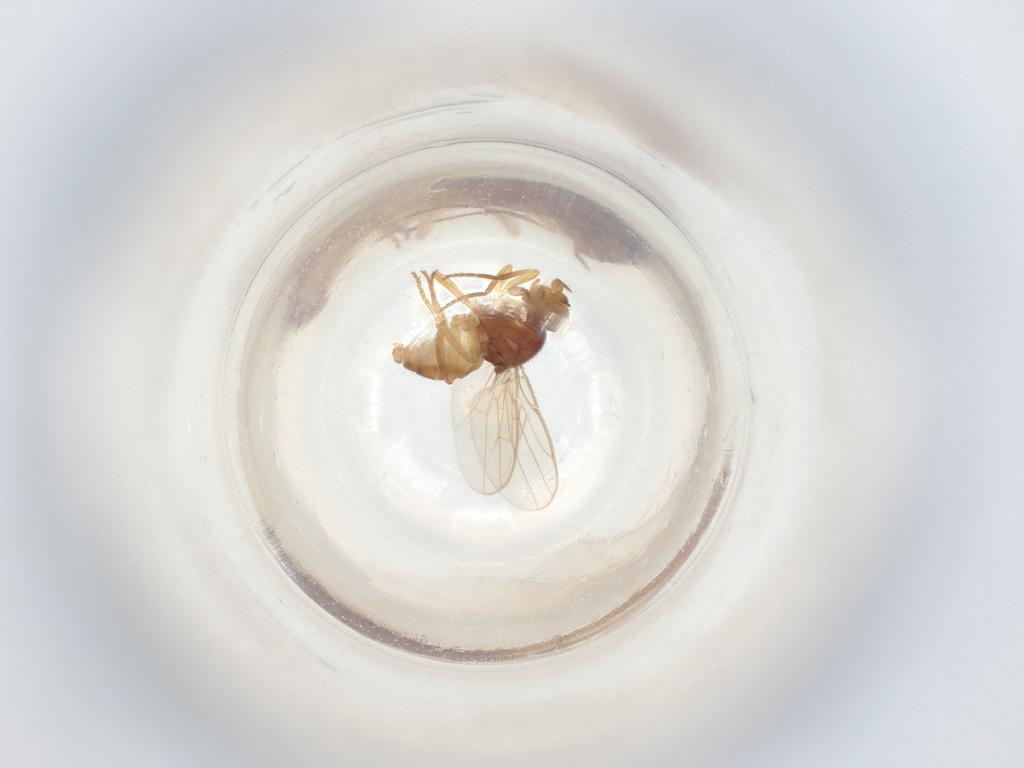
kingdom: Animalia
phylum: Arthropoda
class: Insecta
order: Diptera
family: Chloropidae
